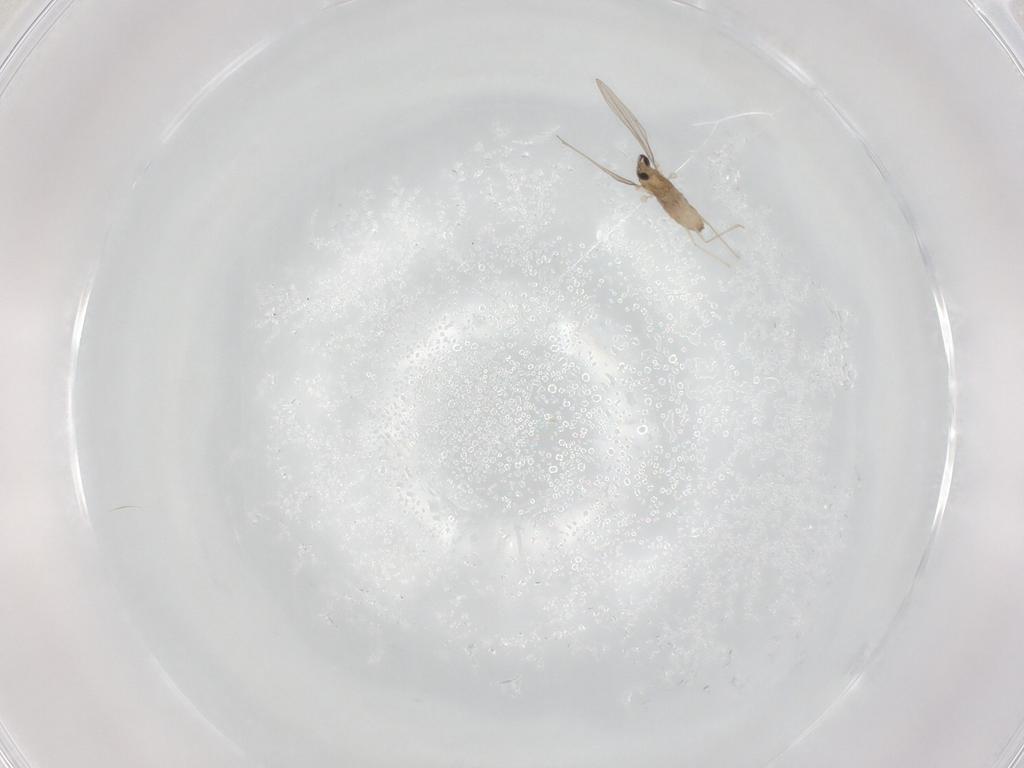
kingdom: Animalia
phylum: Arthropoda
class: Insecta
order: Diptera
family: Cecidomyiidae
